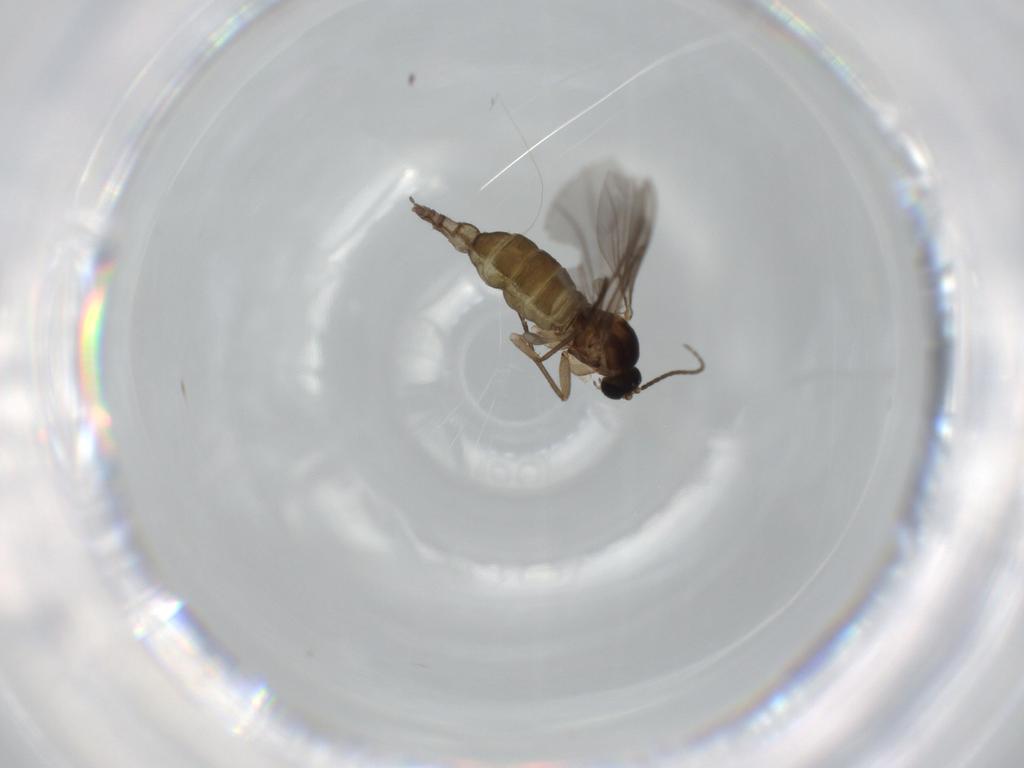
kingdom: Animalia
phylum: Arthropoda
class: Insecta
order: Diptera
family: Sciaridae
